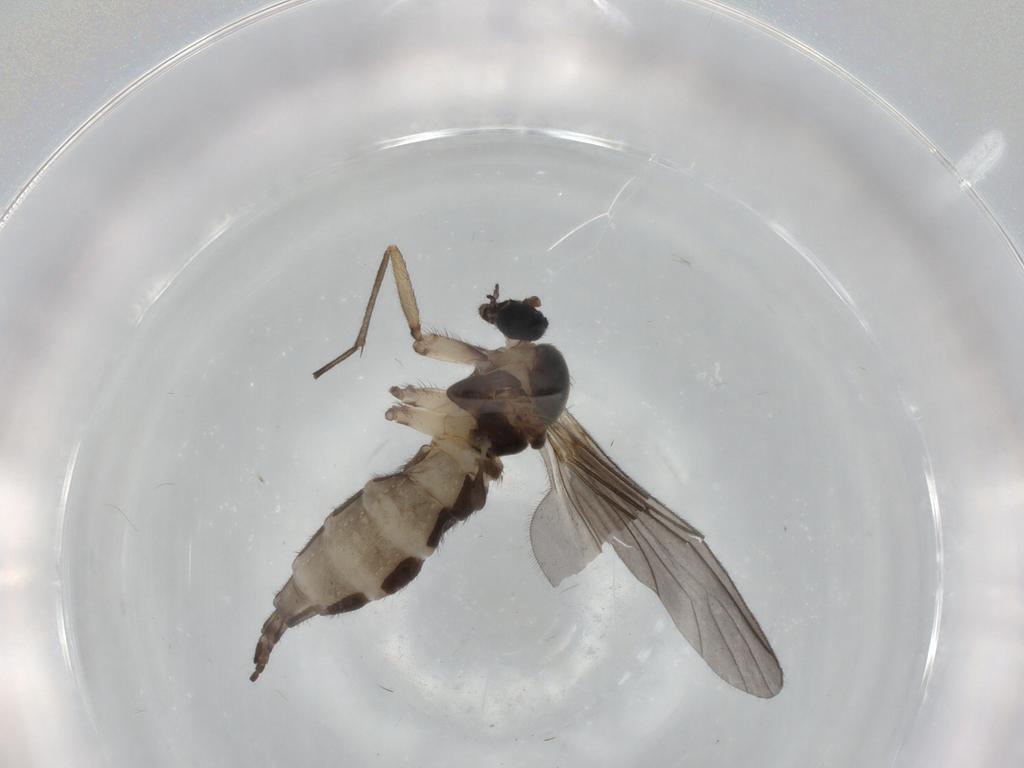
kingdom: Animalia
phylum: Arthropoda
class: Insecta
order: Diptera
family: Sciaridae
